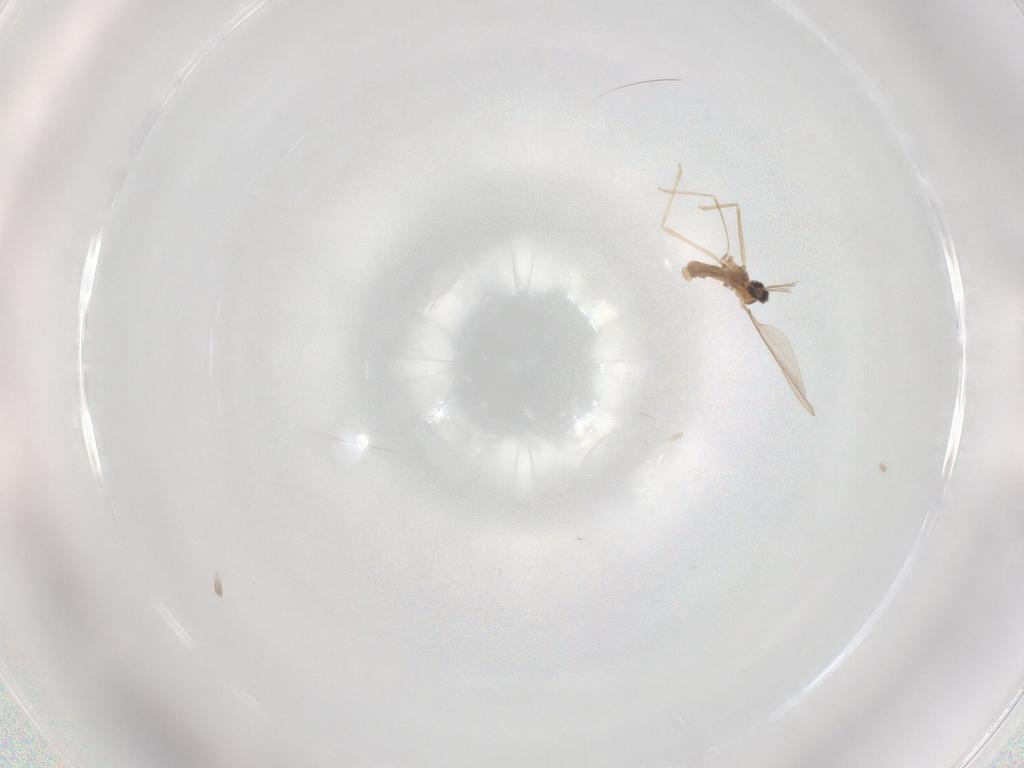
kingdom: Animalia
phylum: Arthropoda
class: Insecta
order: Diptera
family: Cecidomyiidae
